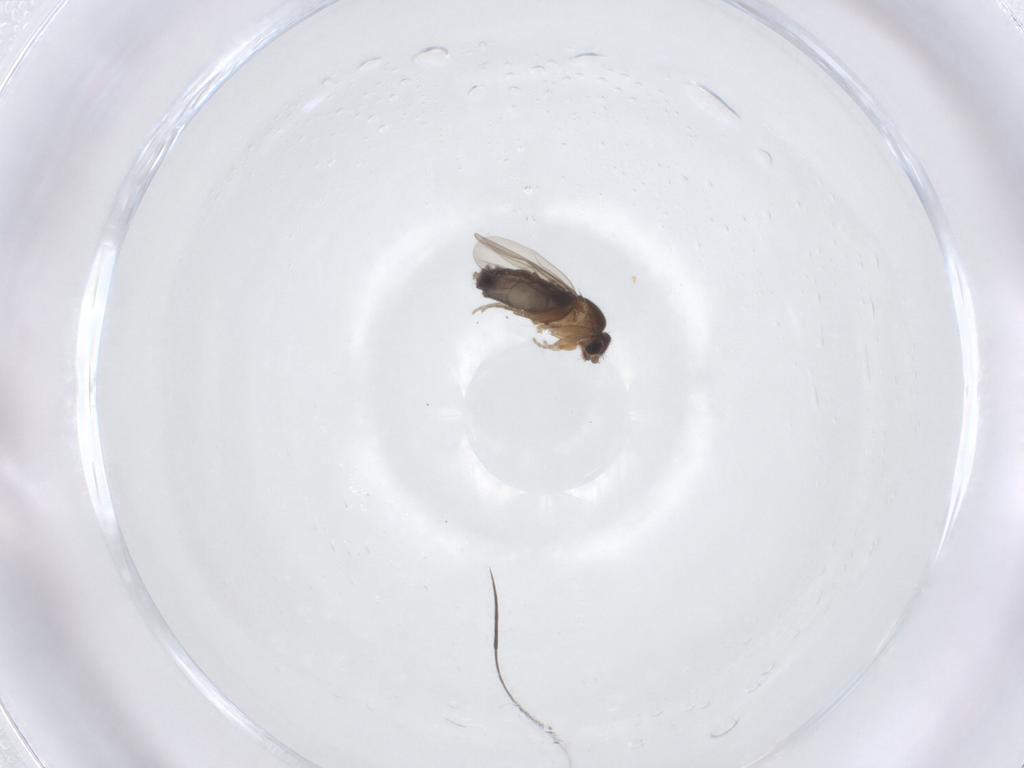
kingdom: Animalia
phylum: Arthropoda
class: Insecta
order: Diptera
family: Phoridae
